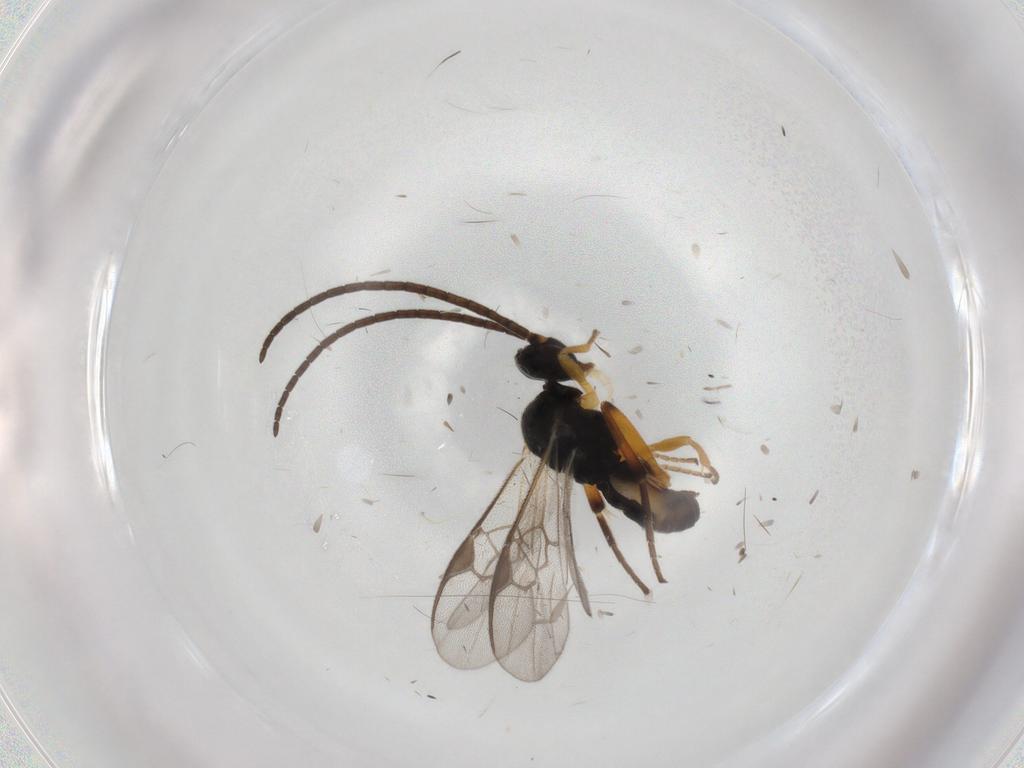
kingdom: Animalia
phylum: Arthropoda
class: Insecta
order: Hymenoptera
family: Braconidae
